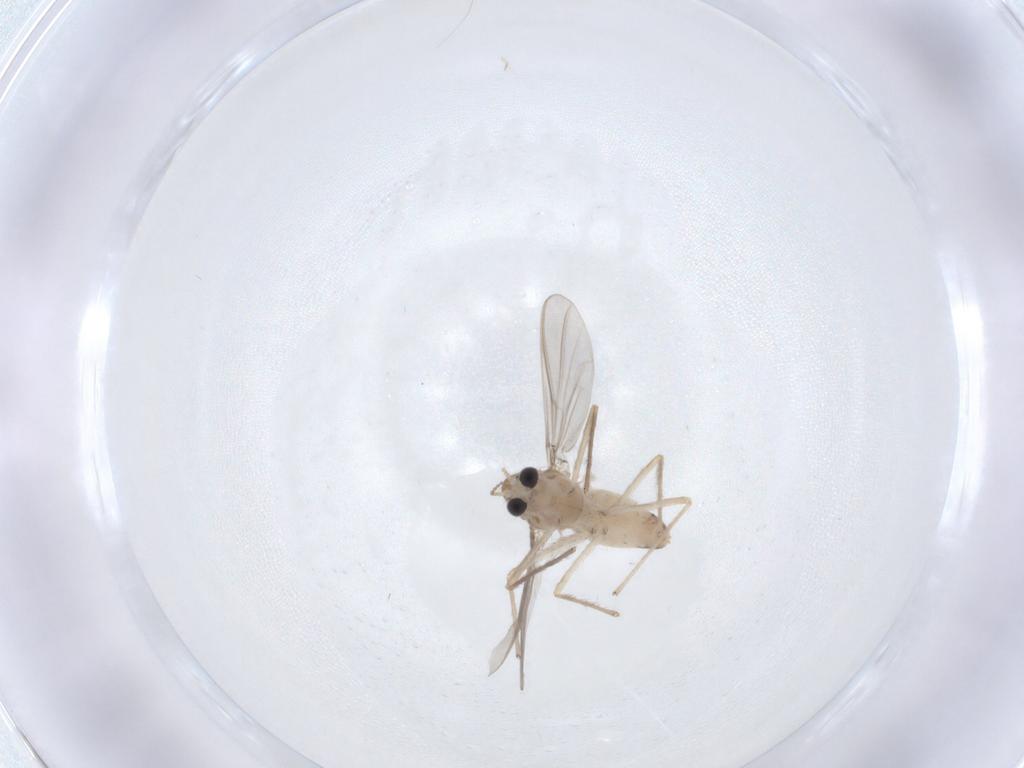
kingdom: Animalia
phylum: Arthropoda
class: Insecta
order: Diptera
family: Chironomidae
